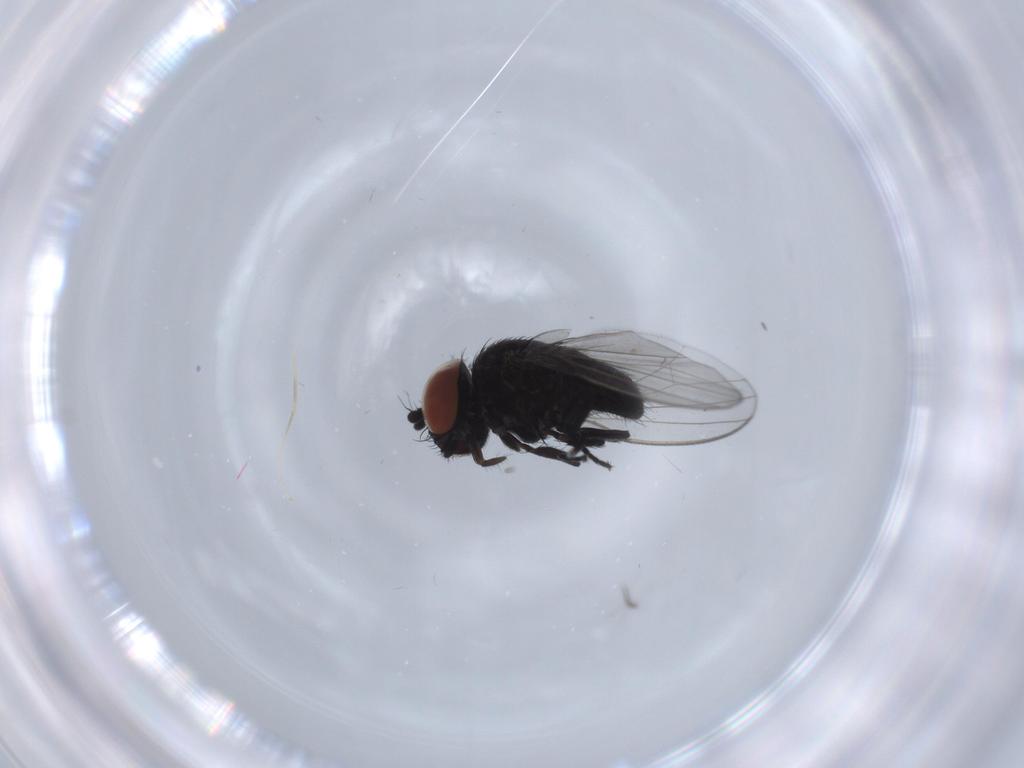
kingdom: Animalia
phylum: Arthropoda
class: Insecta
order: Diptera
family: Milichiidae
